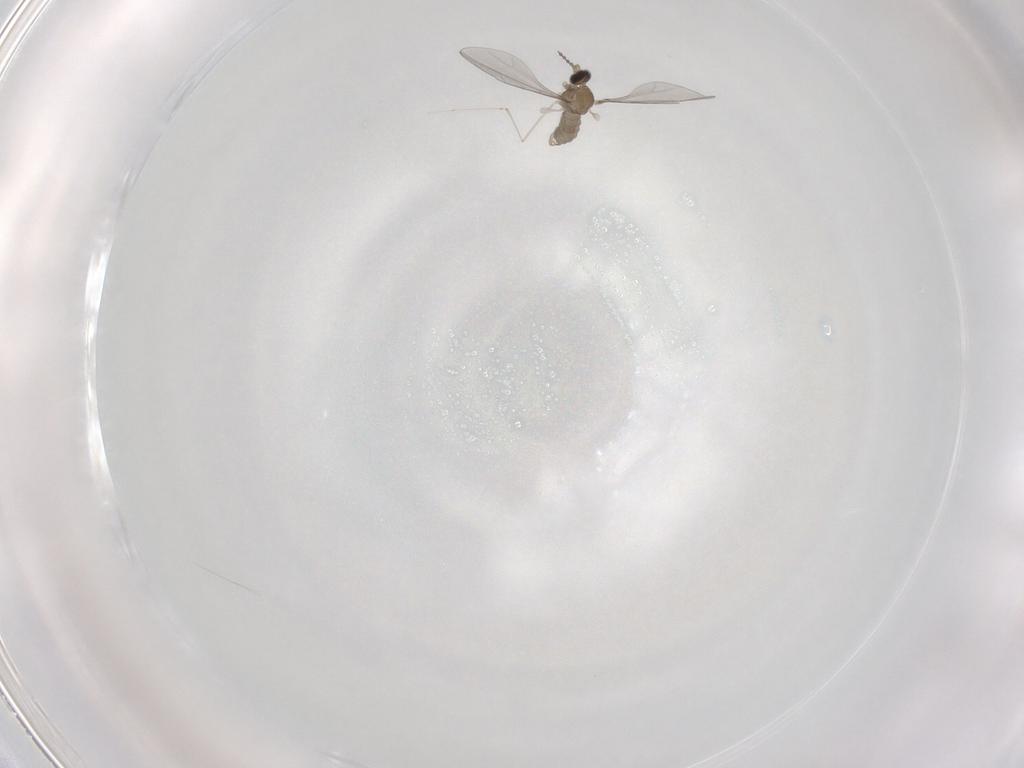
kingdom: Animalia
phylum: Arthropoda
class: Insecta
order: Diptera
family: Cecidomyiidae
